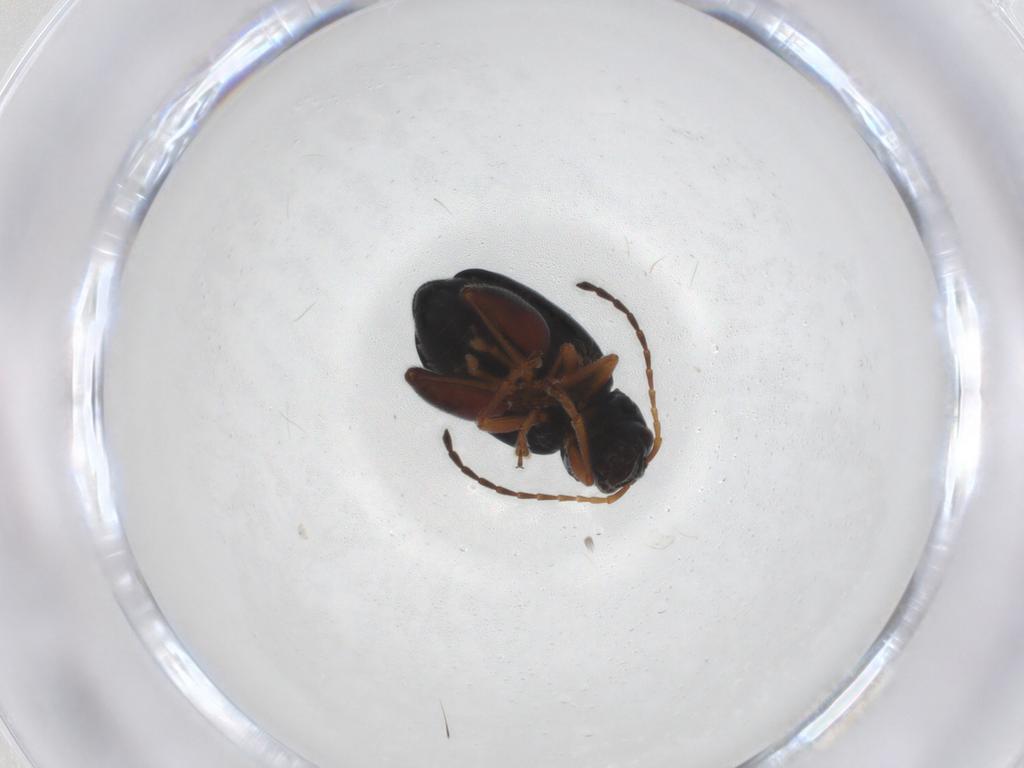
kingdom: Animalia
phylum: Arthropoda
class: Insecta
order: Coleoptera
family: Chrysomelidae
